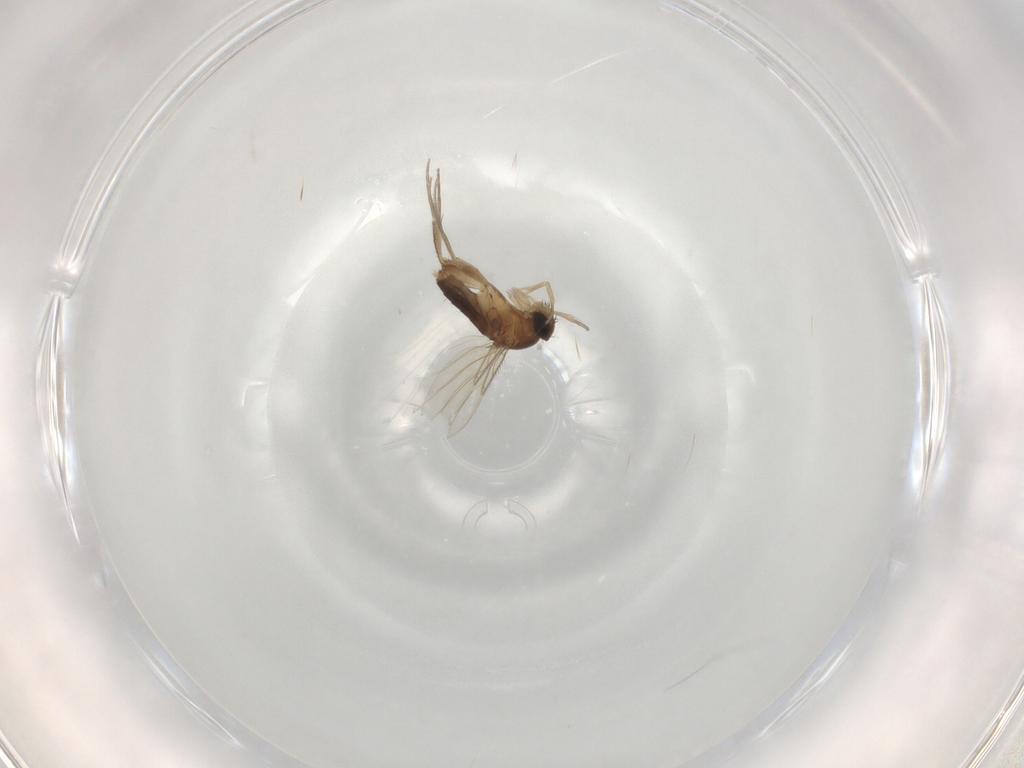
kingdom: Animalia
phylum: Arthropoda
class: Insecta
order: Diptera
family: Phoridae
